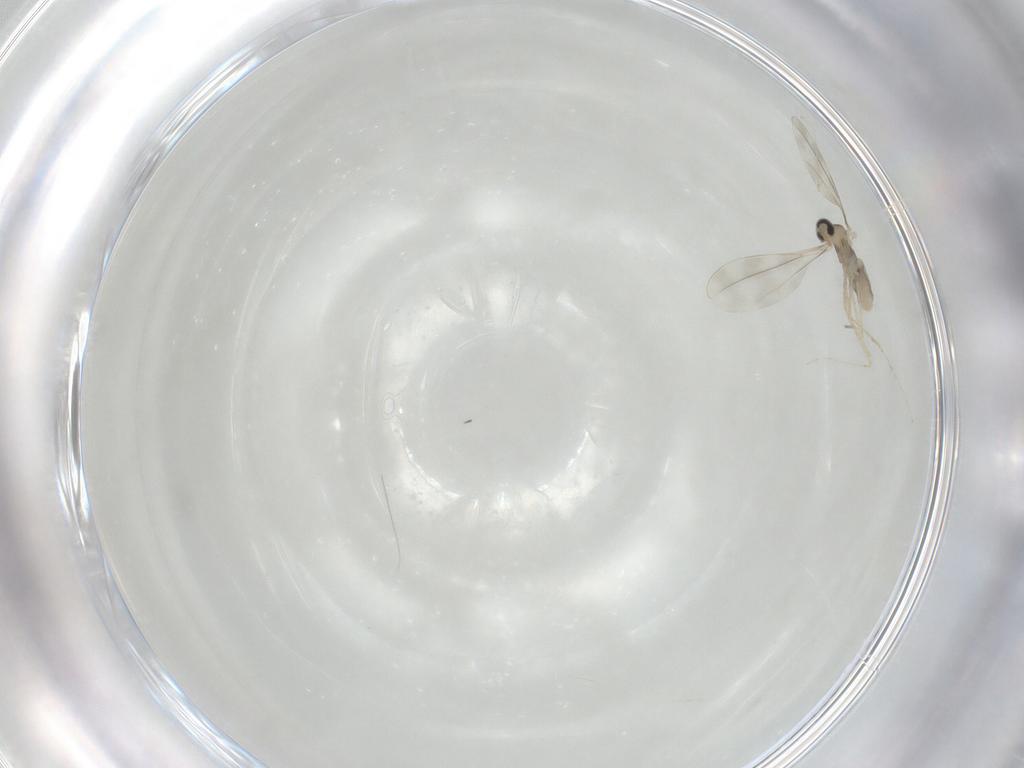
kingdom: Animalia
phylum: Arthropoda
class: Insecta
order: Diptera
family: Cecidomyiidae
